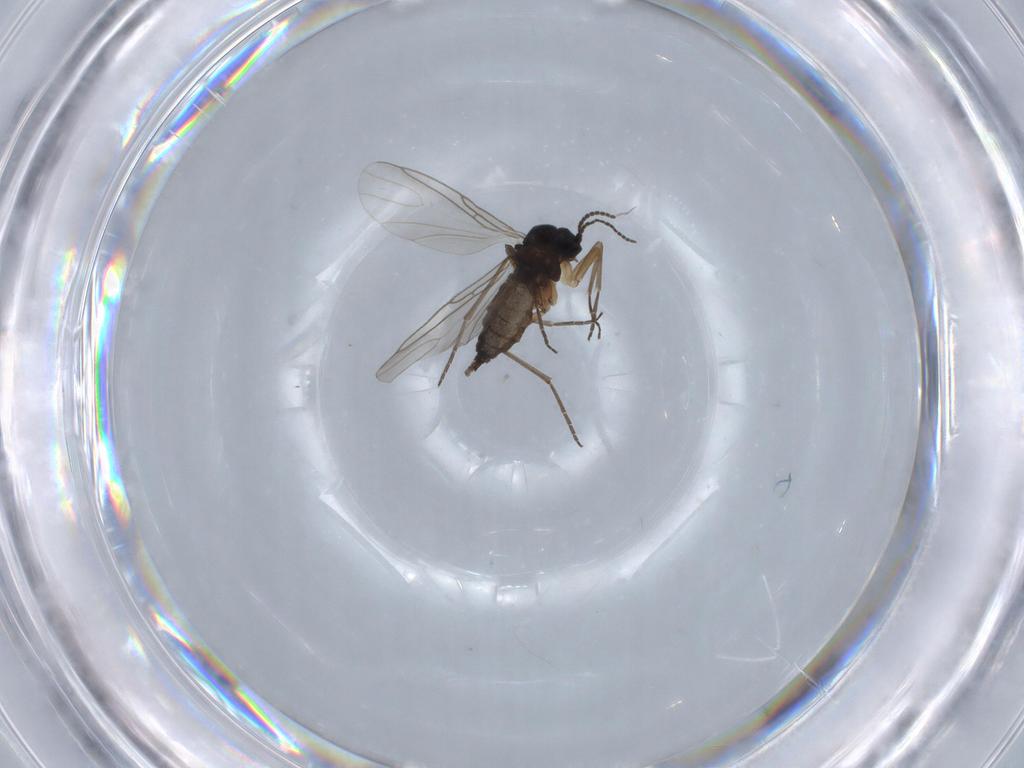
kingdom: Animalia
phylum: Arthropoda
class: Insecta
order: Diptera
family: Sciaridae
